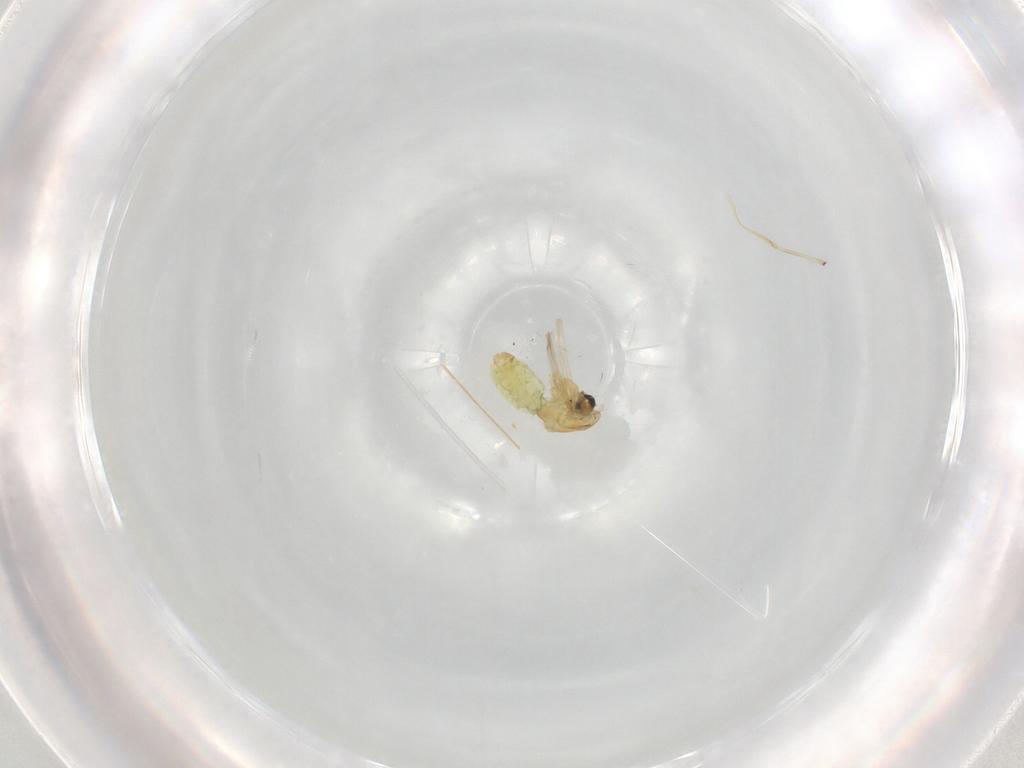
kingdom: Animalia
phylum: Arthropoda
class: Insecta
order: Diptera
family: Chironomidae
